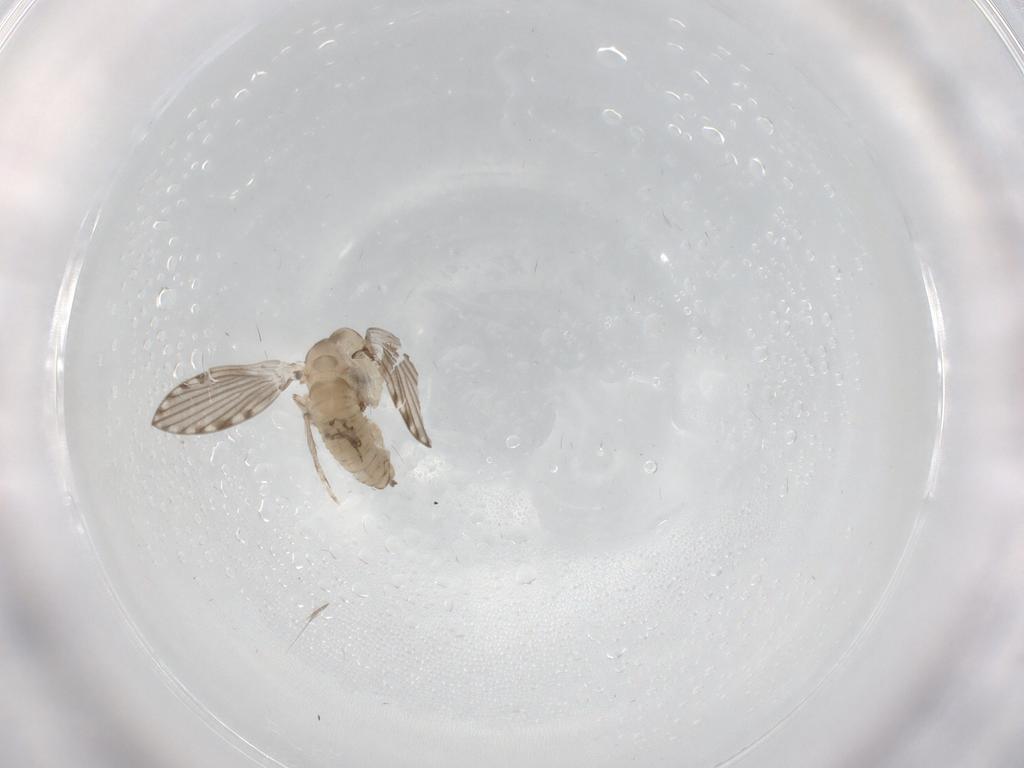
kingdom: Animalia
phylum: Arthropoda
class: Insecta
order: Diptera
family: Psychodidae
